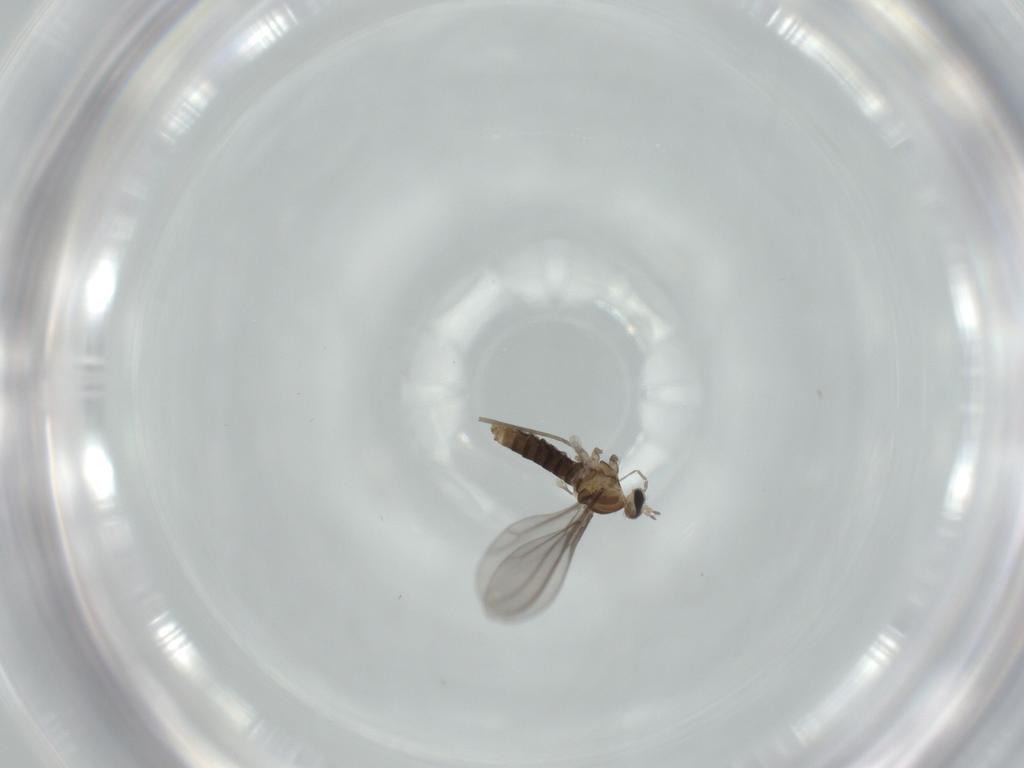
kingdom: Animalia
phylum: Arthropoda
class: Insecta
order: Diptera
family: Cecidomyiidae
